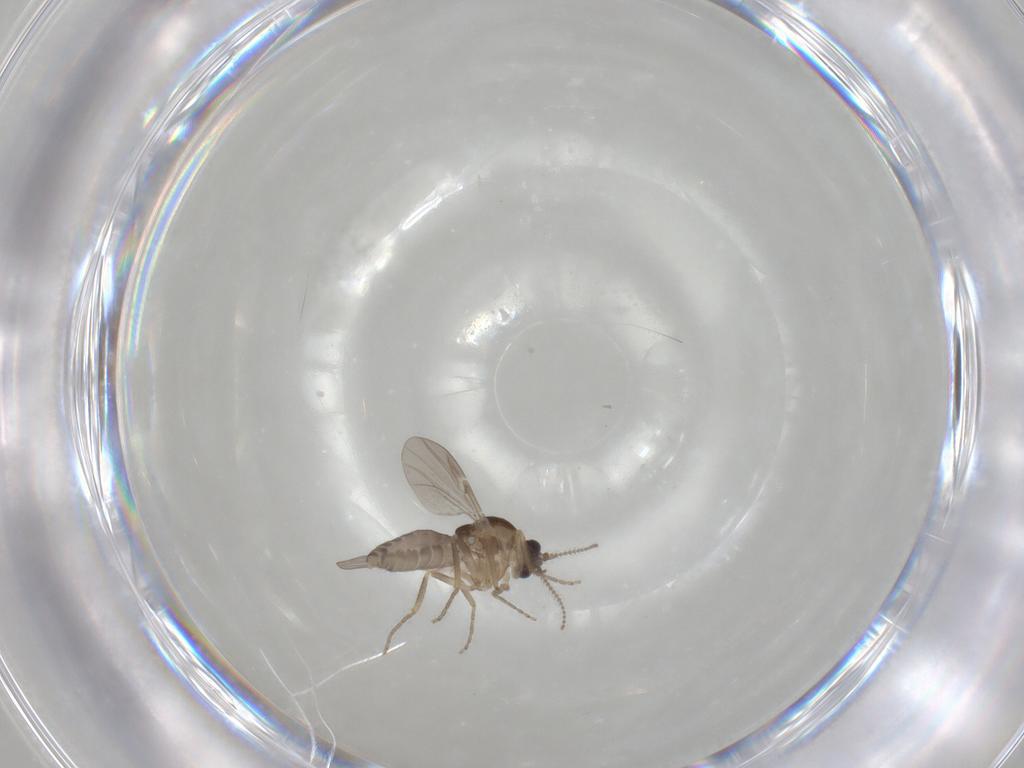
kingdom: Animalia
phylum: Arthropoda
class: Insecta
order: Diptera
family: Ceratopogonidae
